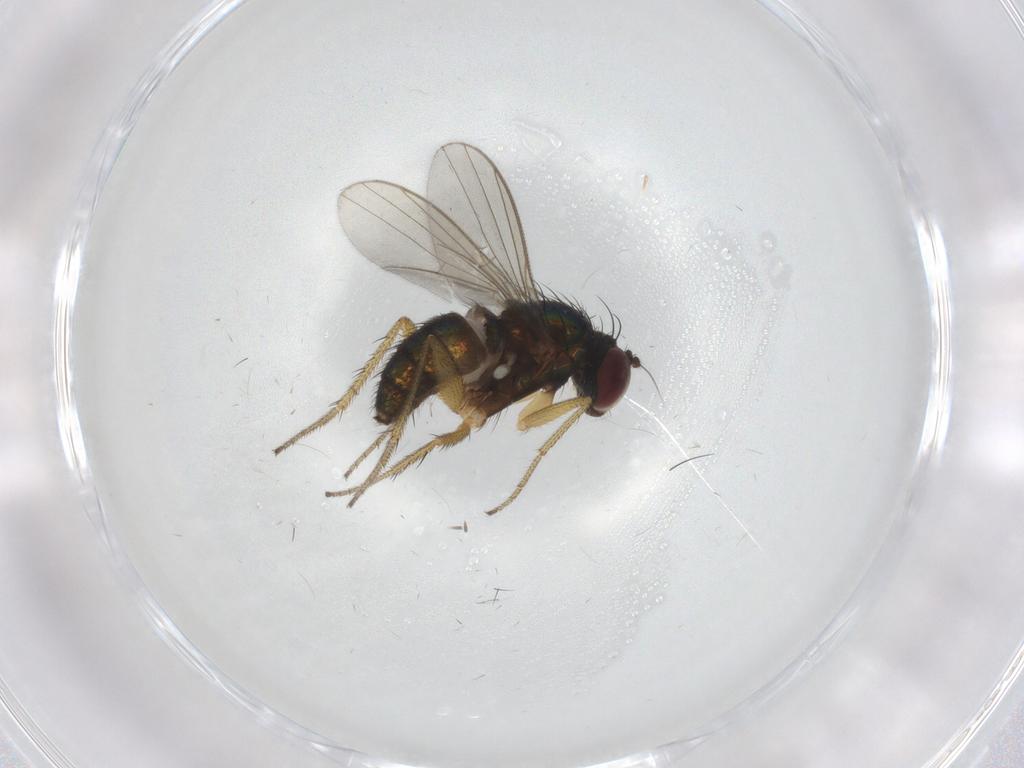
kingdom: Animalia
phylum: Arthropoda
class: Insecta
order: Diptera
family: Dolichopodidae
